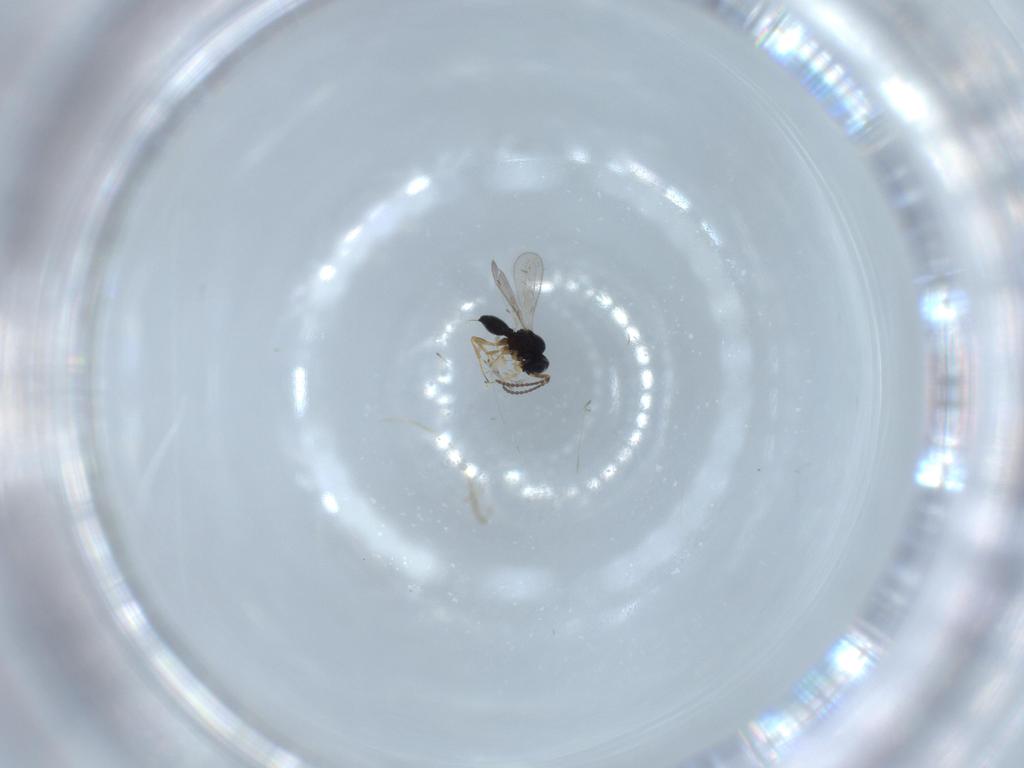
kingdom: Animalia
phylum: Arthropoda
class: Insecta
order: Hymenoptera
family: Scelionidae
